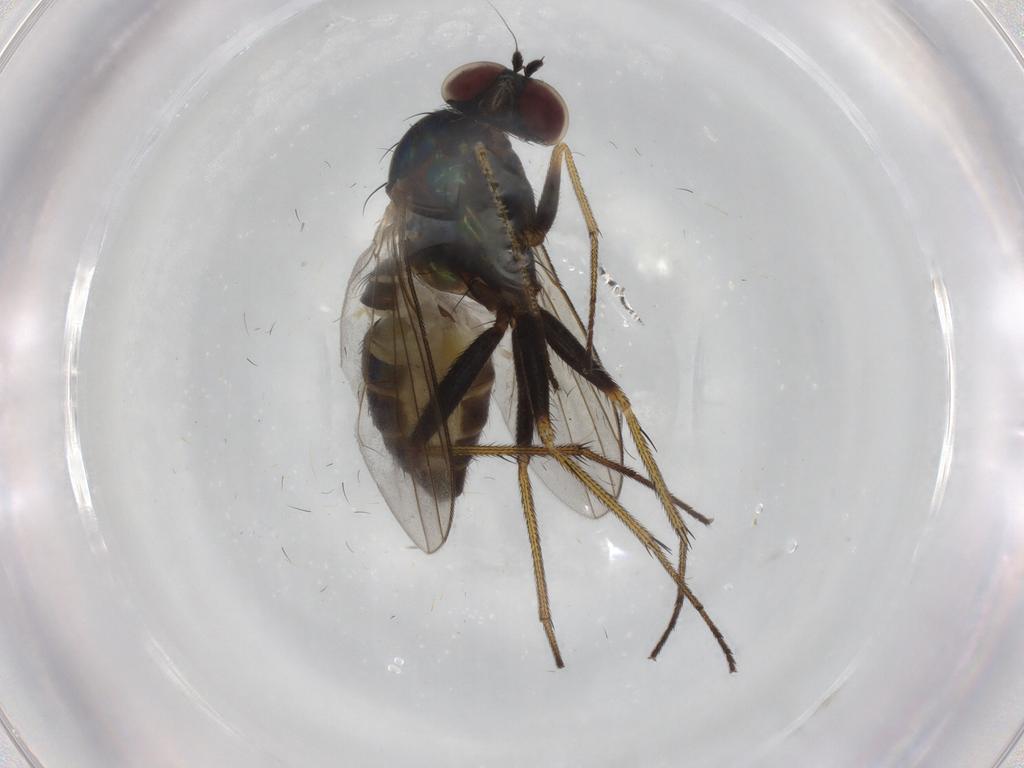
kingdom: Animalia
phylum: Arthropoda
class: Insecta
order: Diptera
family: Dolichopodidae
